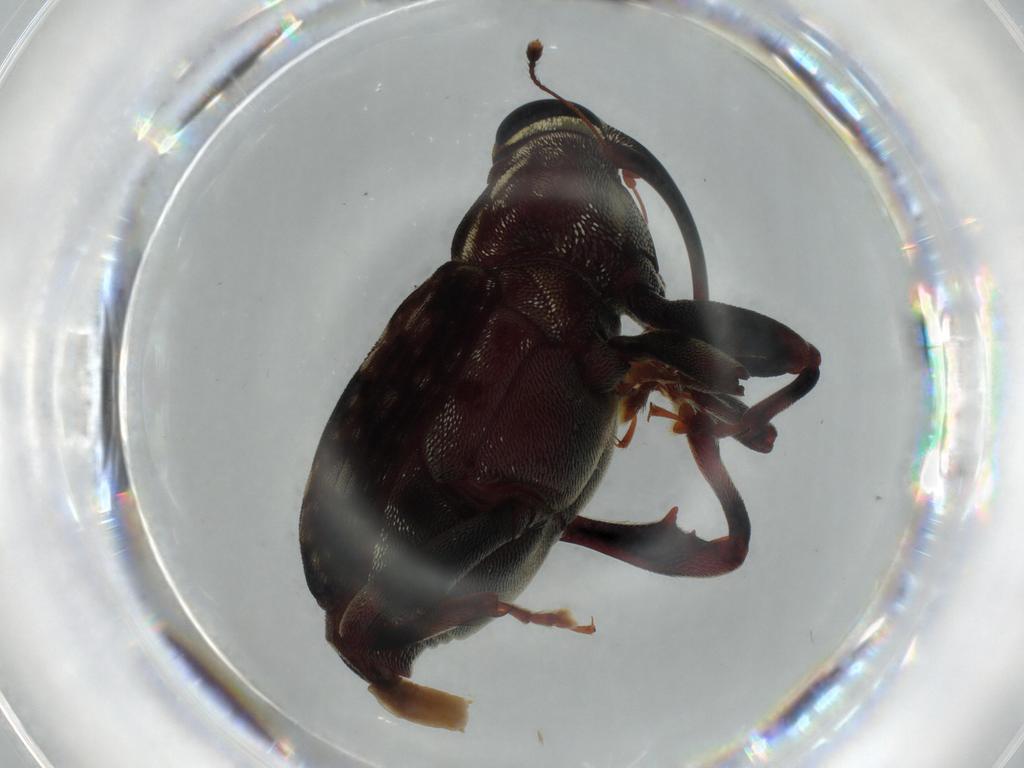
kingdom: Animalia
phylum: Arthropoda
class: Insecta
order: Coleoptera
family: Curculionidae
